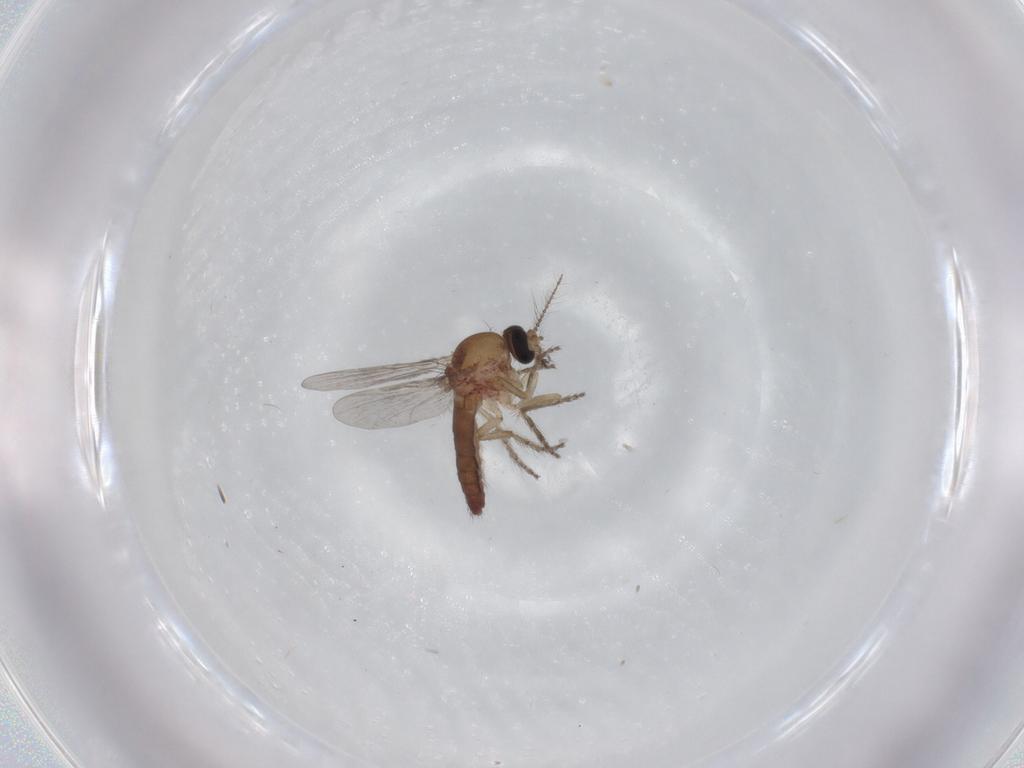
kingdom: Animalia
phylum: Arthropoda
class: Insecta
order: Diptera
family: Ceratopogonidae
